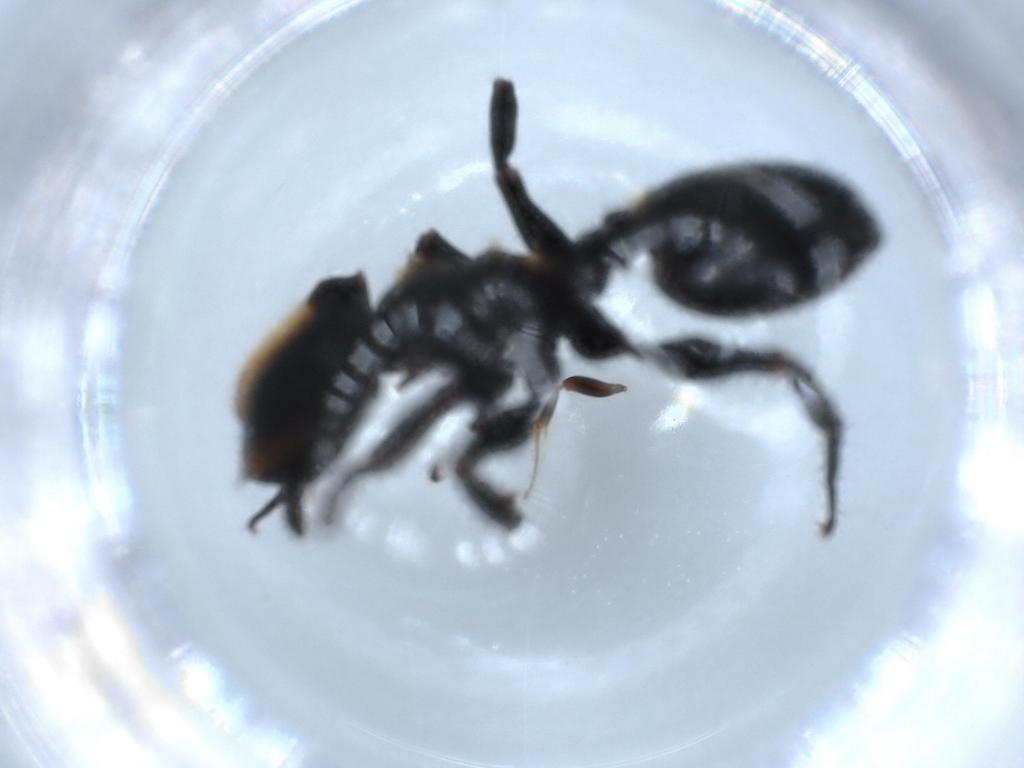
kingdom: Animalia
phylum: Arthropoda
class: Insecta
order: Hymenoptera
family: Formicidae
